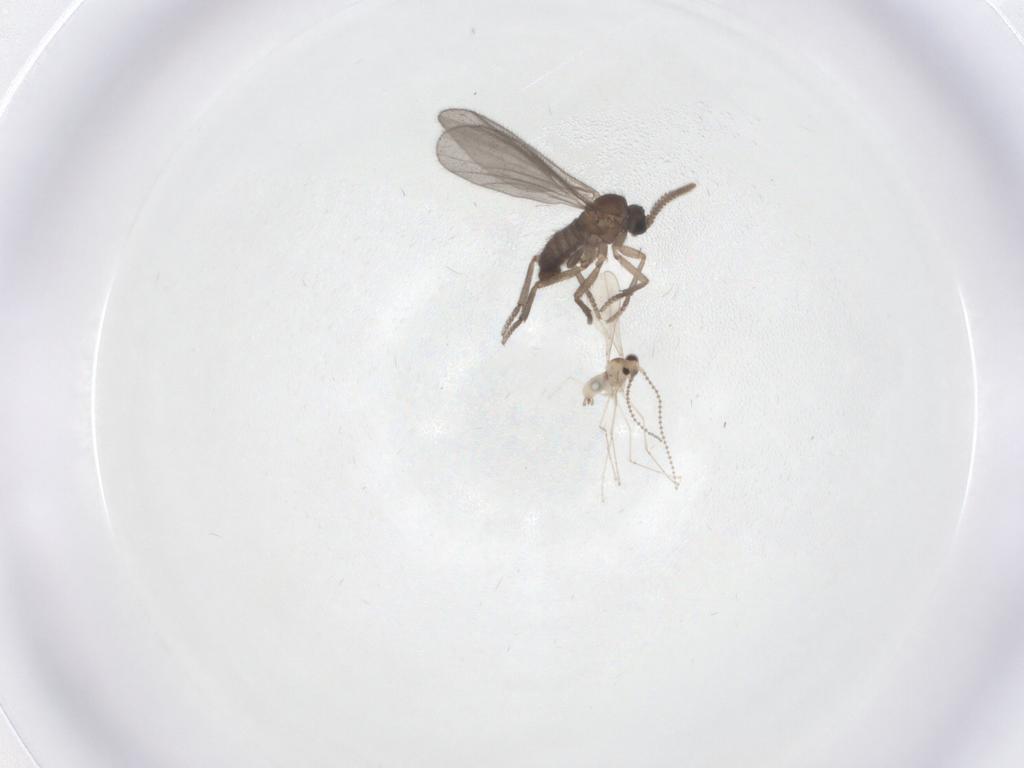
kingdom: Animalia
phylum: Arthropoda
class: Insecta
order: Diptera
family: Cecidomyiidae
